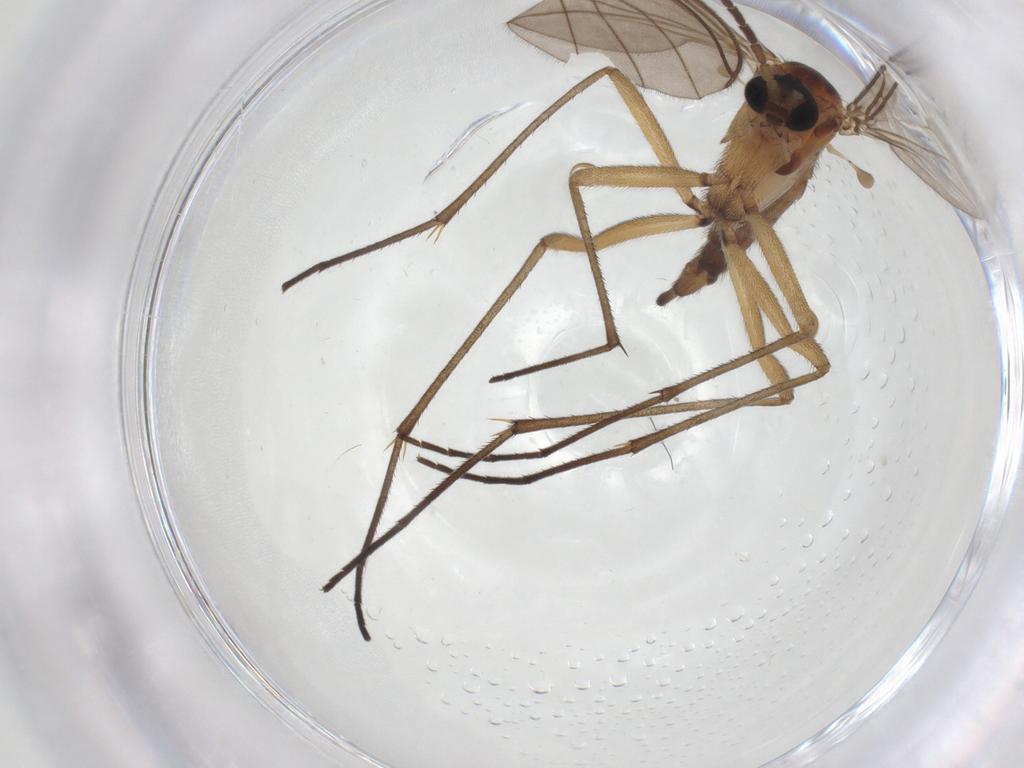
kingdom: Animalia
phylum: Arthropoda
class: Insecta
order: Diptera
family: Sciaridae
